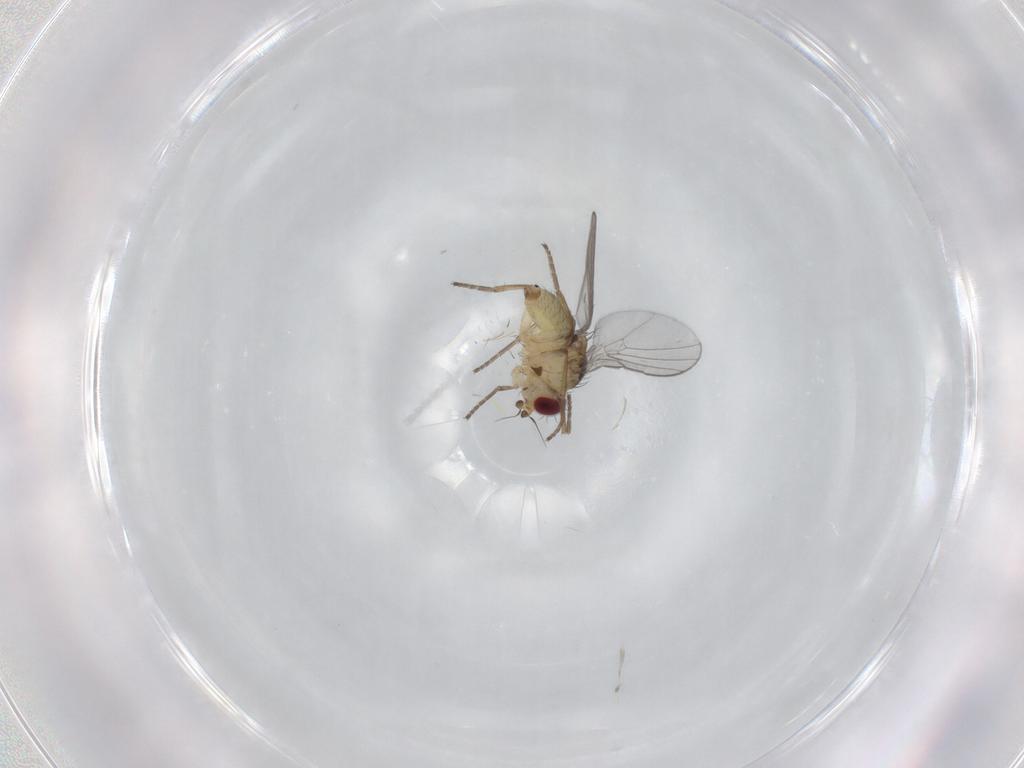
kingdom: Animalia
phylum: Arthropoda
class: Insecta
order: Diptera
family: Agromyzidae
